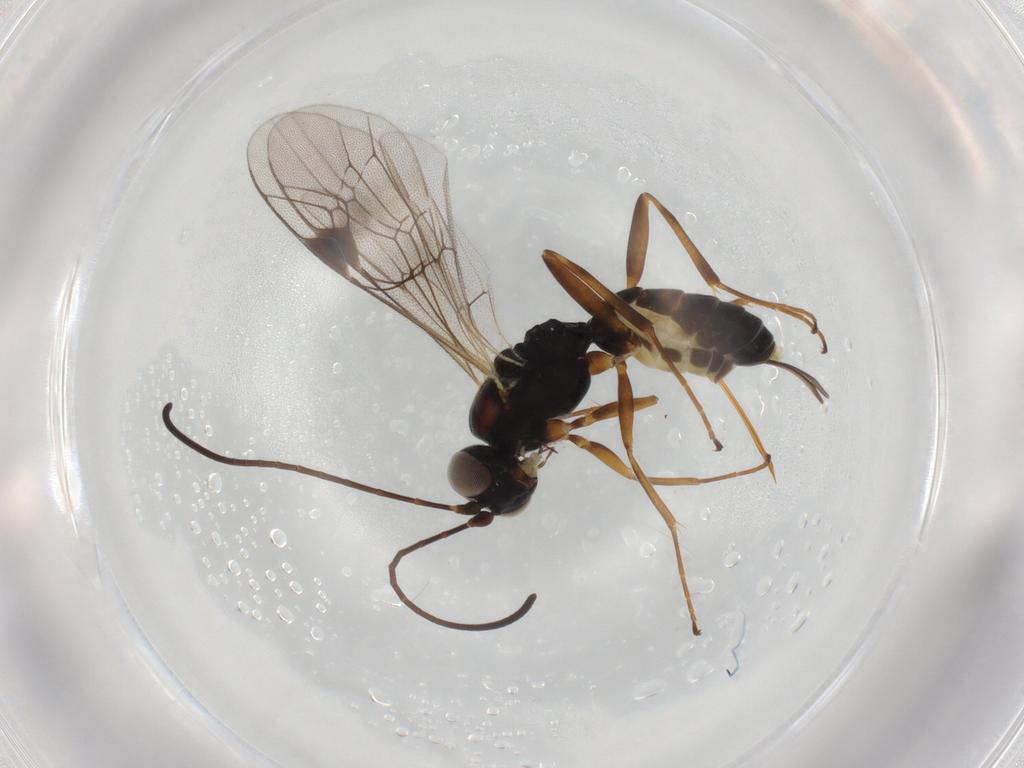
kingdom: Animalia
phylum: Arthropoda
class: Insecta
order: Hymenoptera
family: Ichneumonidae
